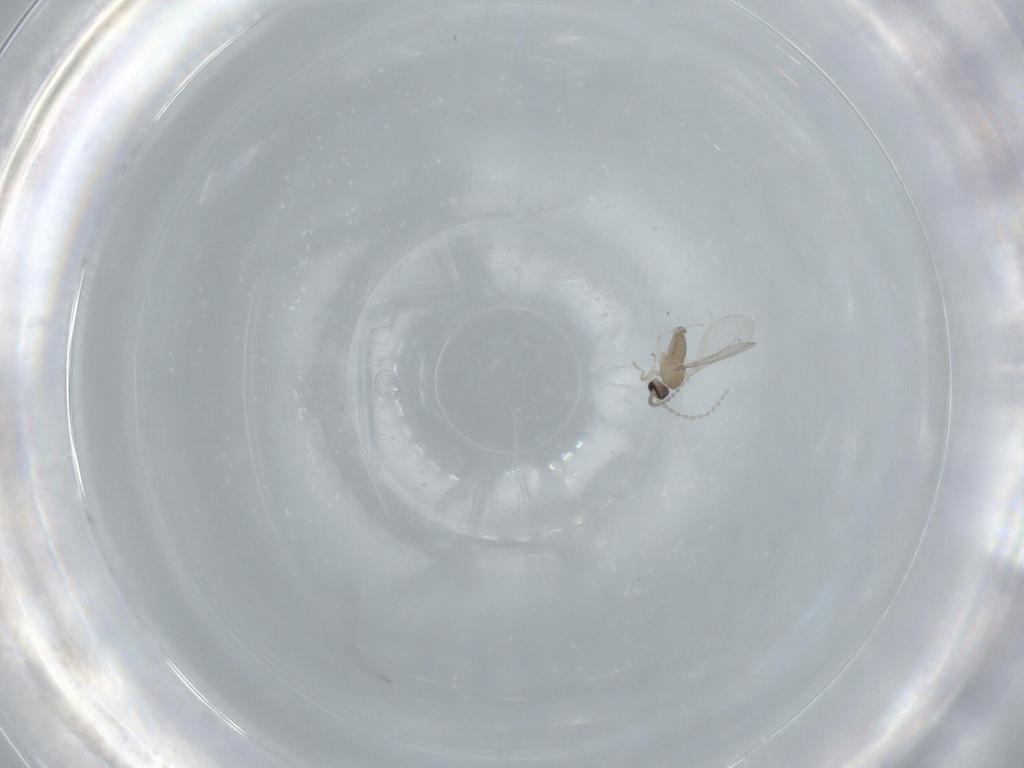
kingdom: Animalia
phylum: Arthropoda
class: Insecta
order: Diptera
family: Cecidomyiidae
